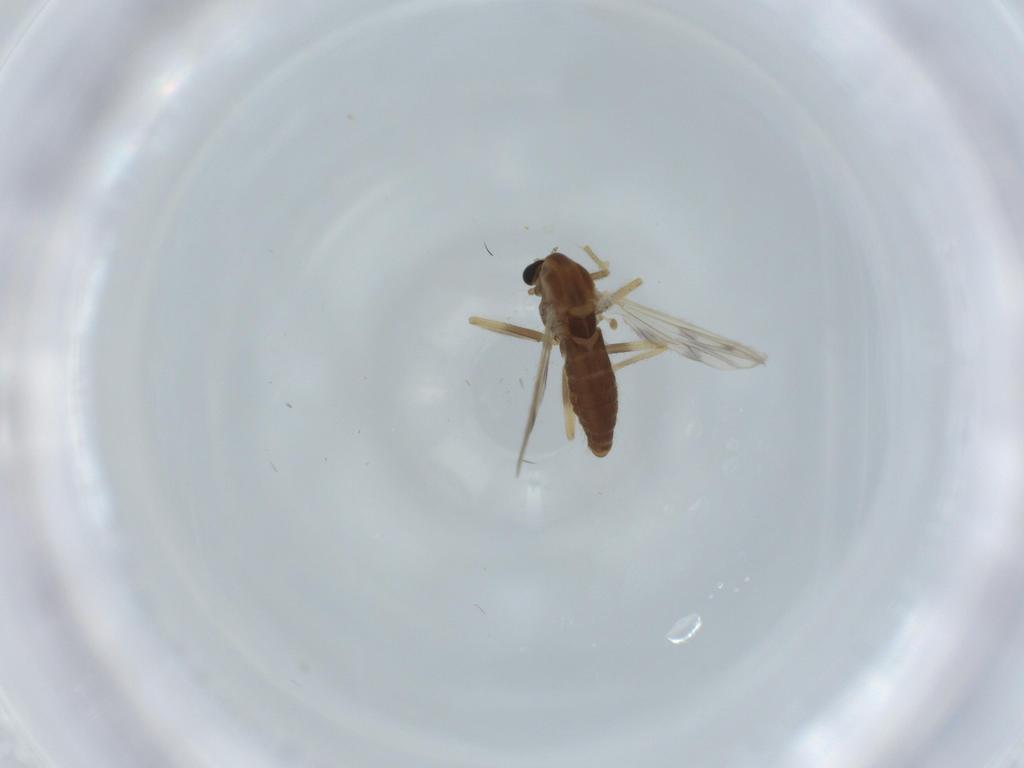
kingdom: Animalia
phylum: Arthropoda
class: Insecta
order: Diptera
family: Chironomidae
